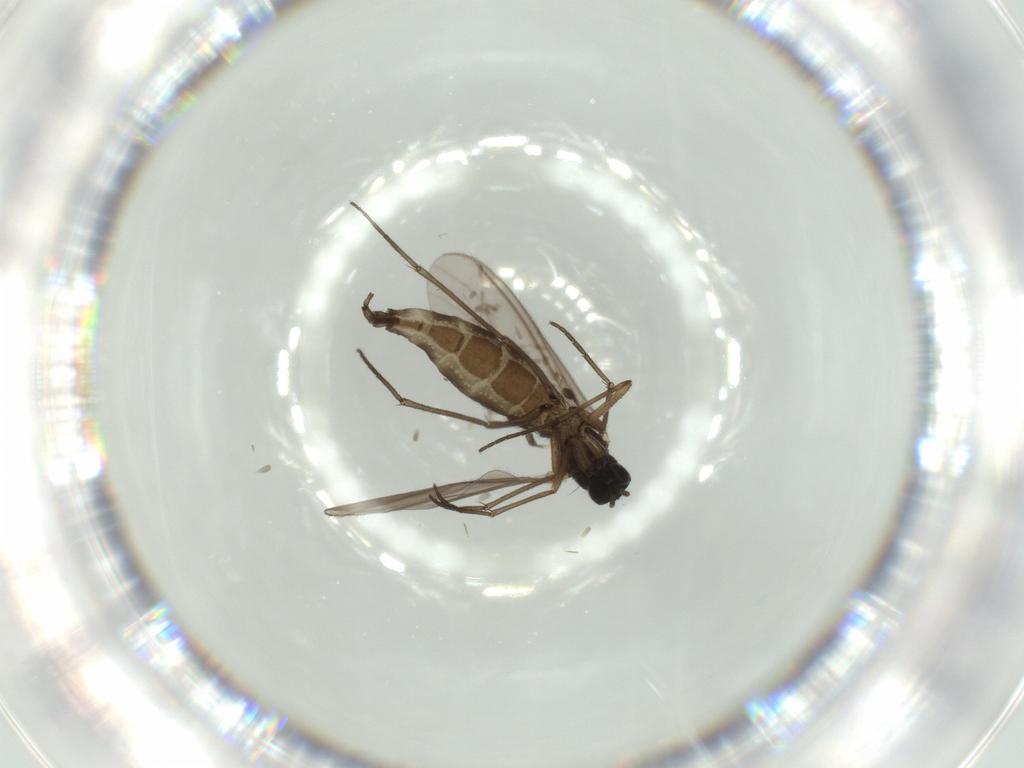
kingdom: Animalia
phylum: Arthropoda
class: Insecta
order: Diptera
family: Sciaridae
